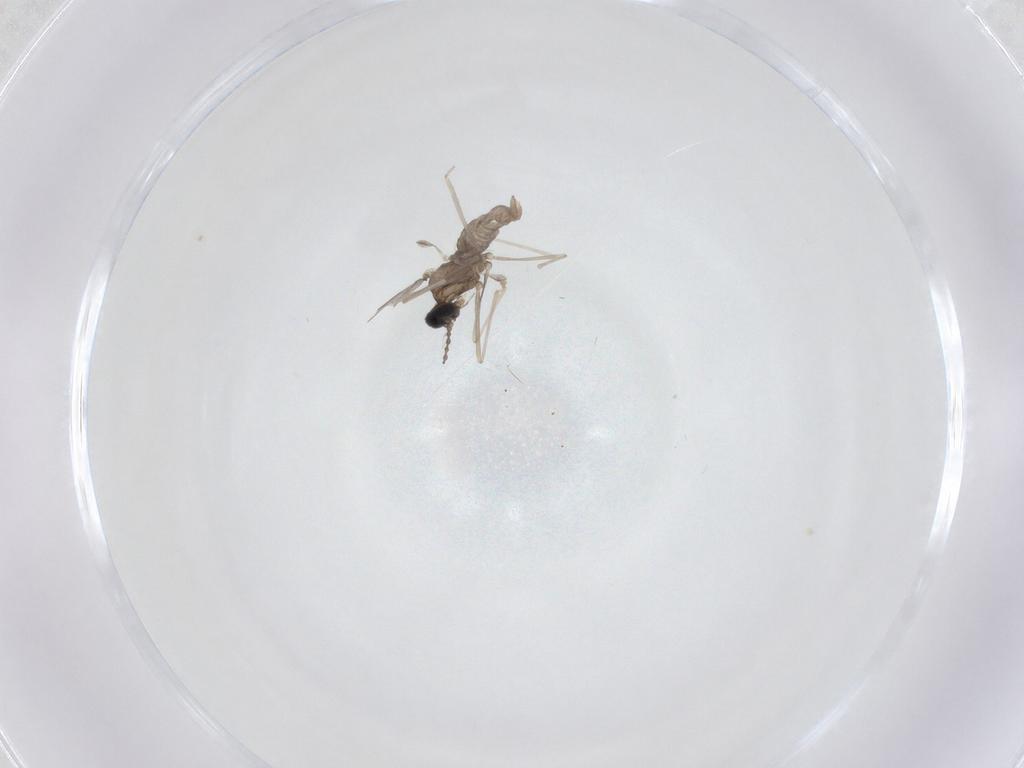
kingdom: Animalia
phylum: Arthropoda
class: Insecta
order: Diptera
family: Cecidomyiidae
